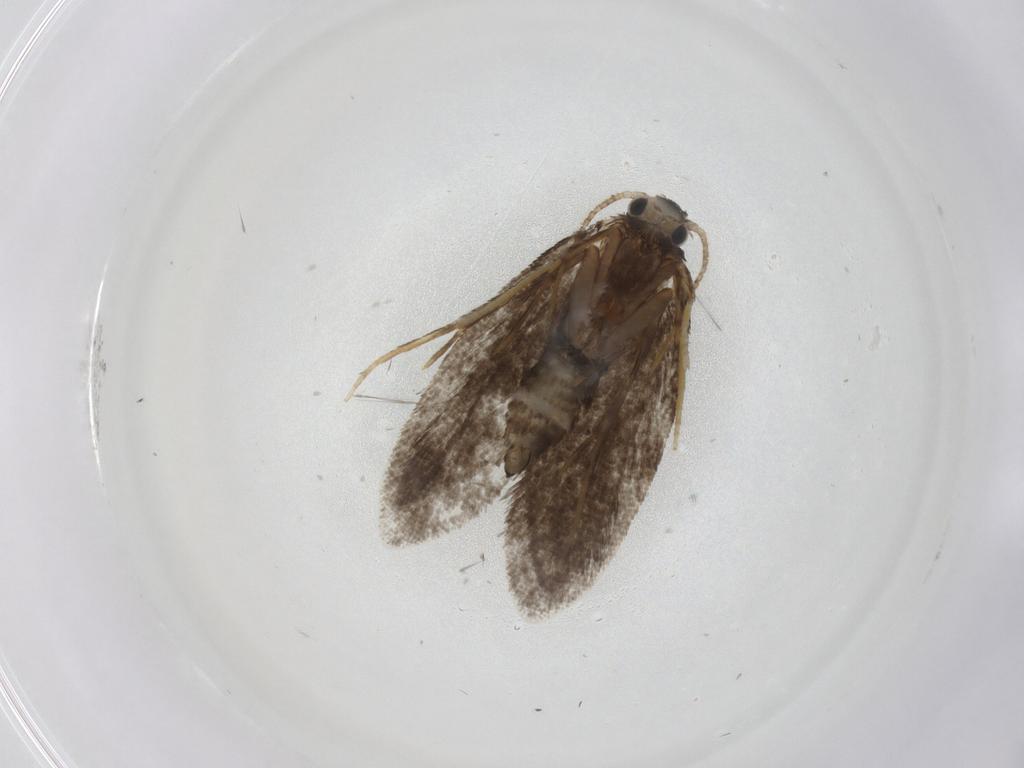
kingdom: Animalia
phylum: Arthropoda
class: Insecta
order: Lepidoptera
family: Psychidae
